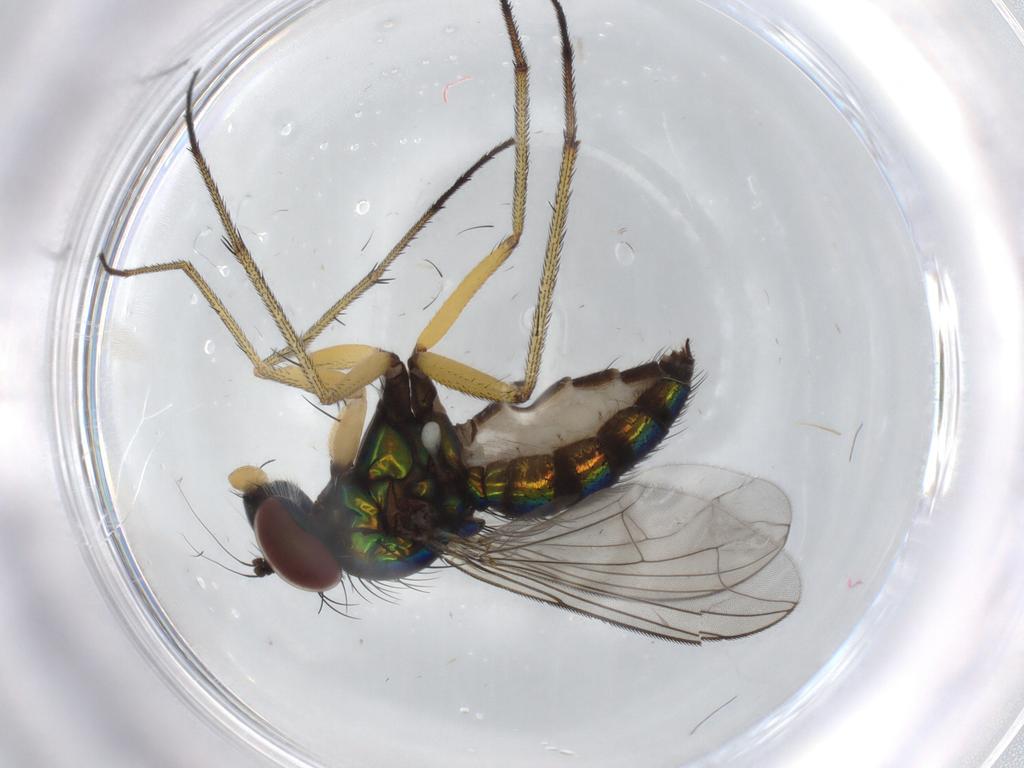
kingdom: Animalia
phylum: Arthropoda
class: Insecta
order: Diptera
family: Dolichopodidae
